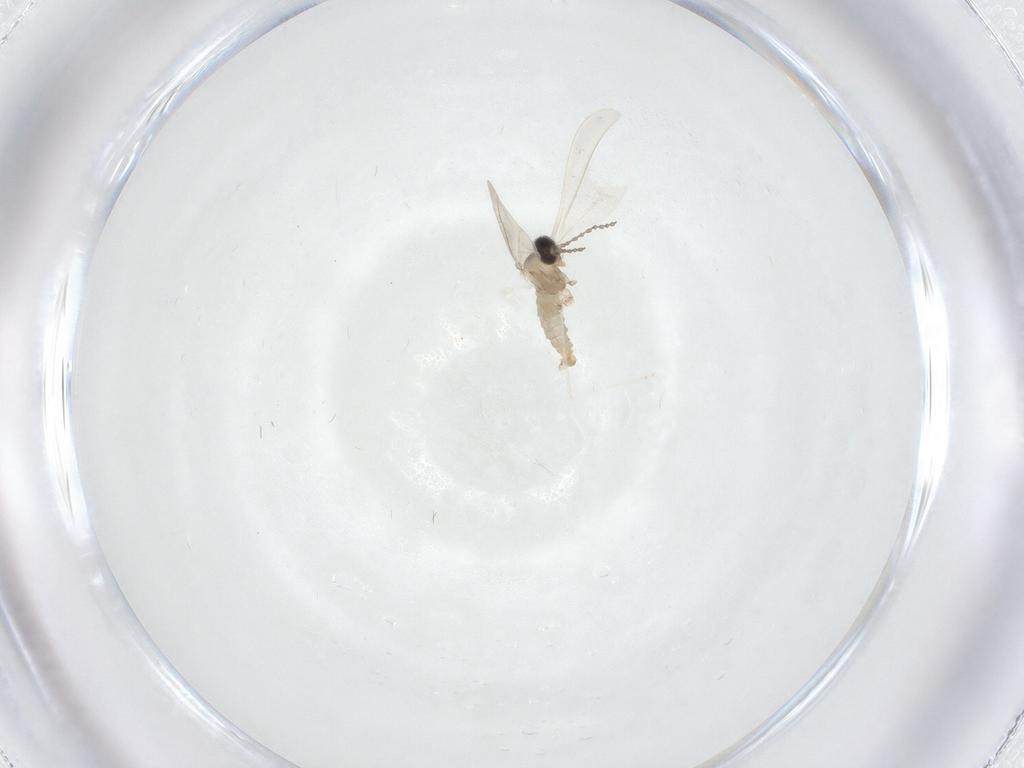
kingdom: Animalia
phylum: Arthropoda
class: Insecta
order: Diptera
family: Cecidomyiidae
